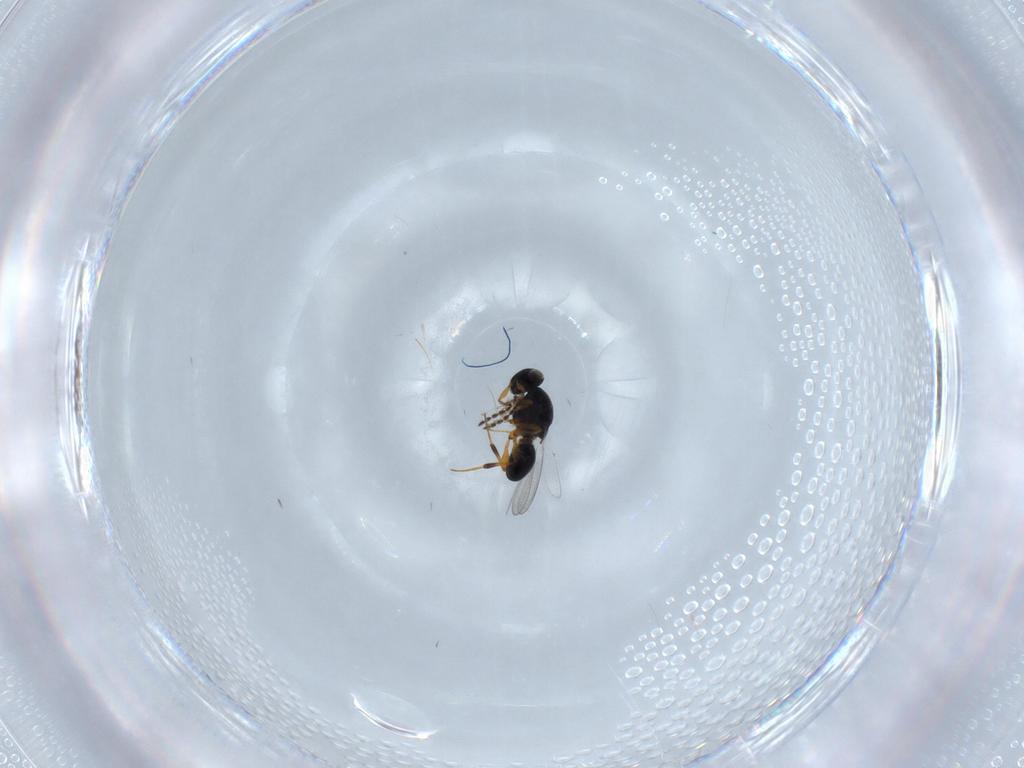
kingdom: Animalia
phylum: Arthropoda
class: Insecta
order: Hymenoptera
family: Platygastridae
